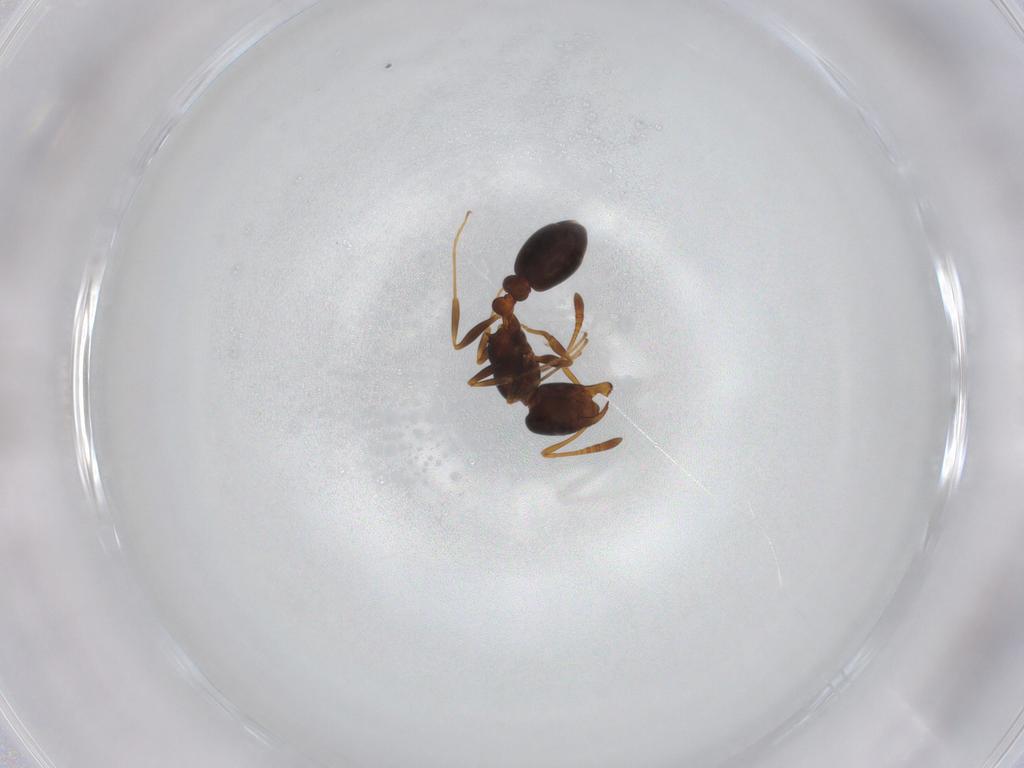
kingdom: Animalia
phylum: Arthropoda
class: Insecta
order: Hymenoptera
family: Formicidae
